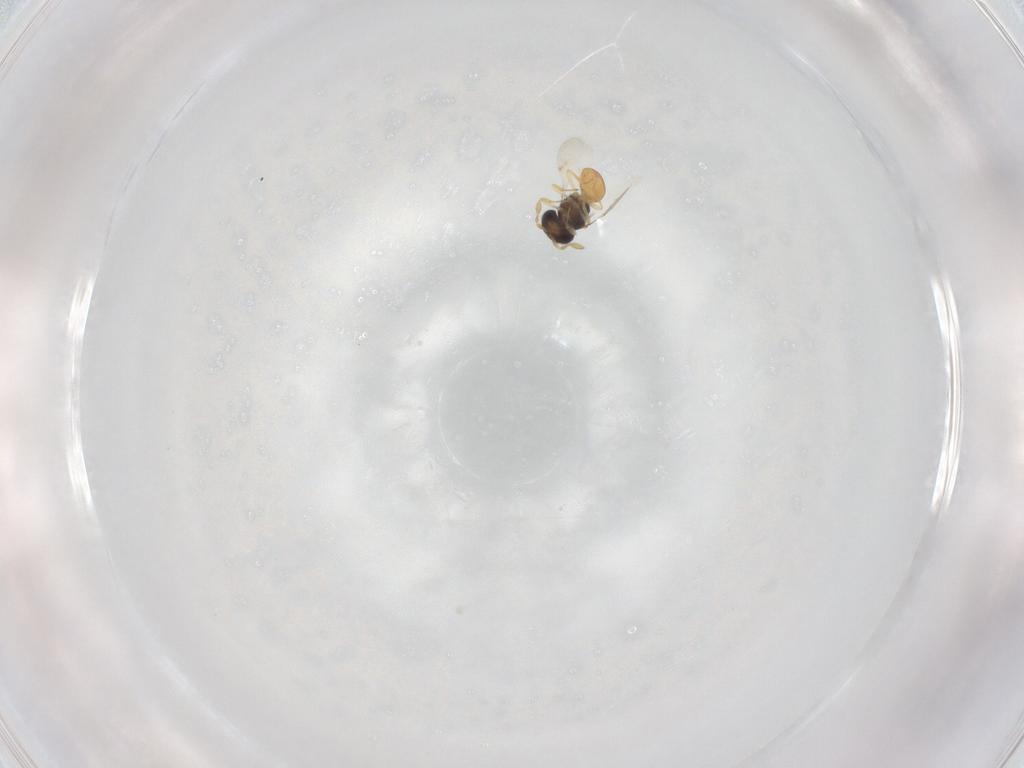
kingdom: Animalia
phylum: Arthropoda
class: Insecta
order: Hymenoptera
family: Scelionidae
